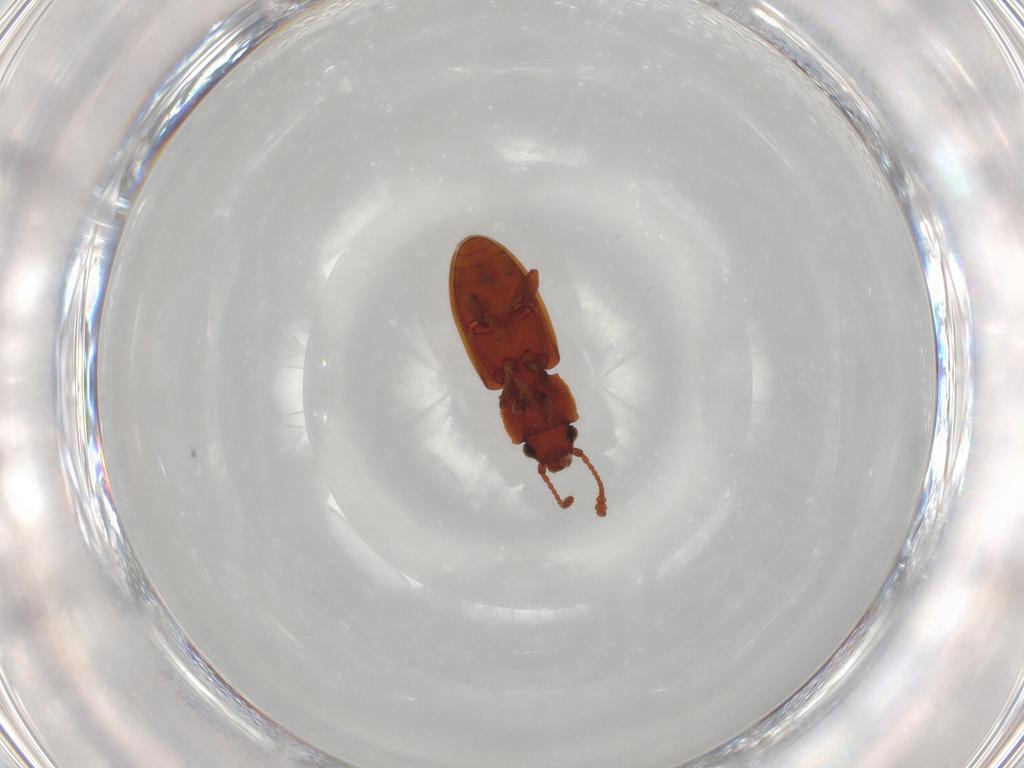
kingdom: Animalia
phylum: Arthropoda
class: Insecta
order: Coleoptera
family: Silvanidae
